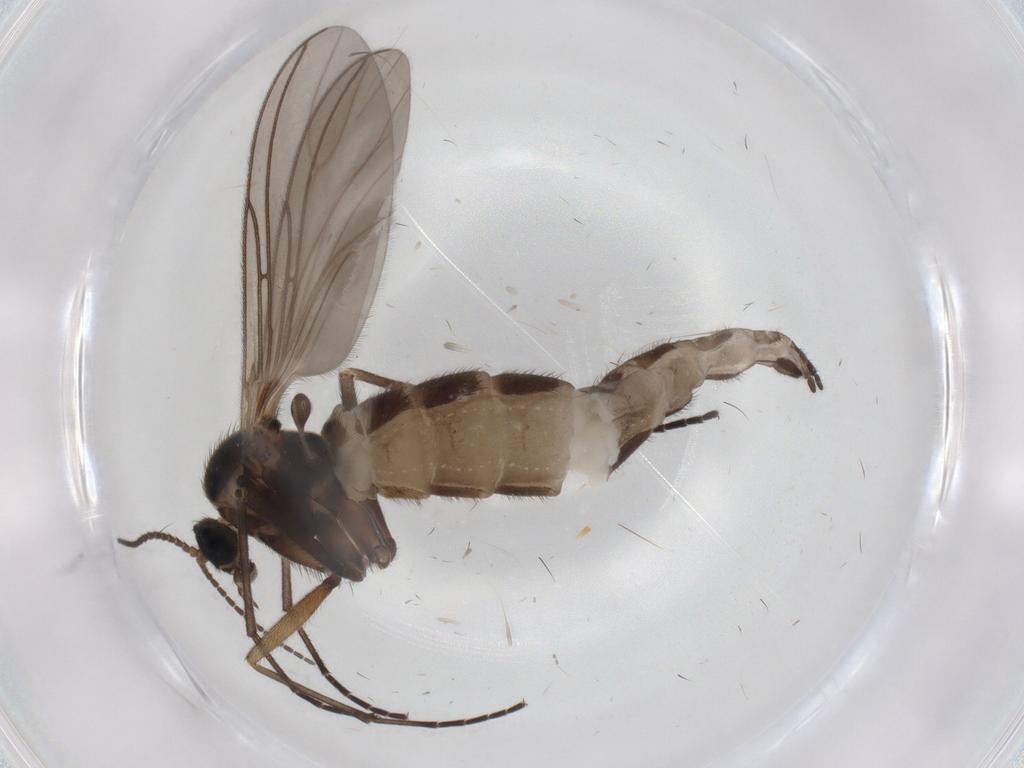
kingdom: Animalia
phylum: Arthropoda
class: Insecta
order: Diptera
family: Sciaridae
